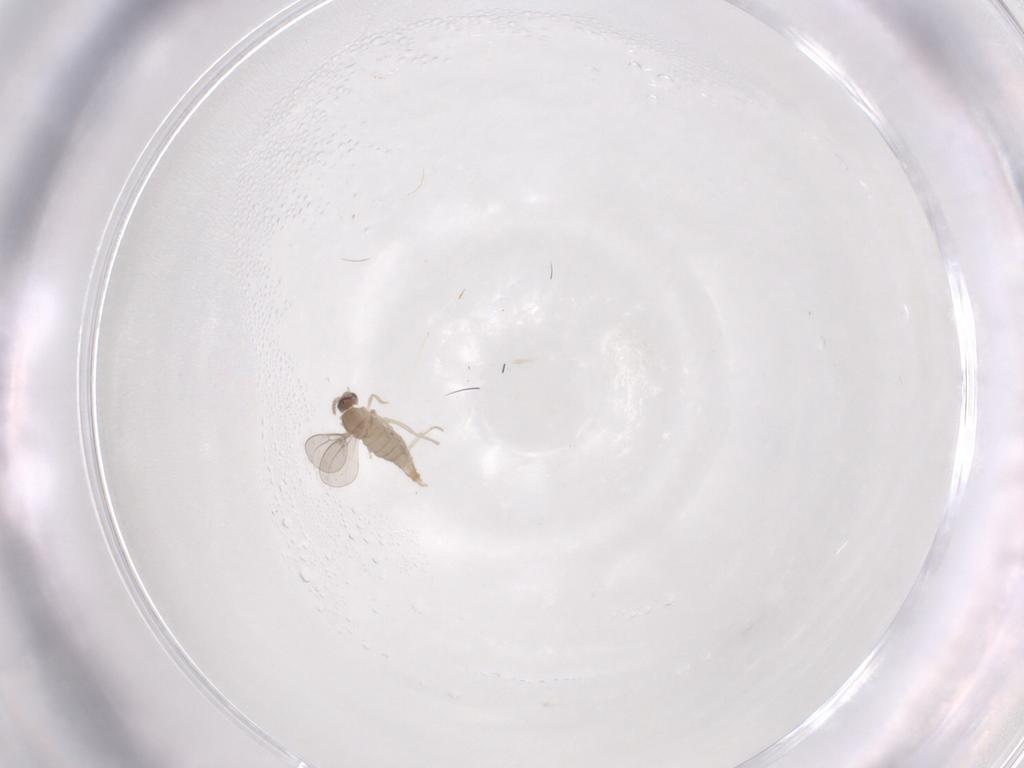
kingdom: Animalia
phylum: Arthropoda
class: Insecta
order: Diptera
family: Cecidomyiidae
